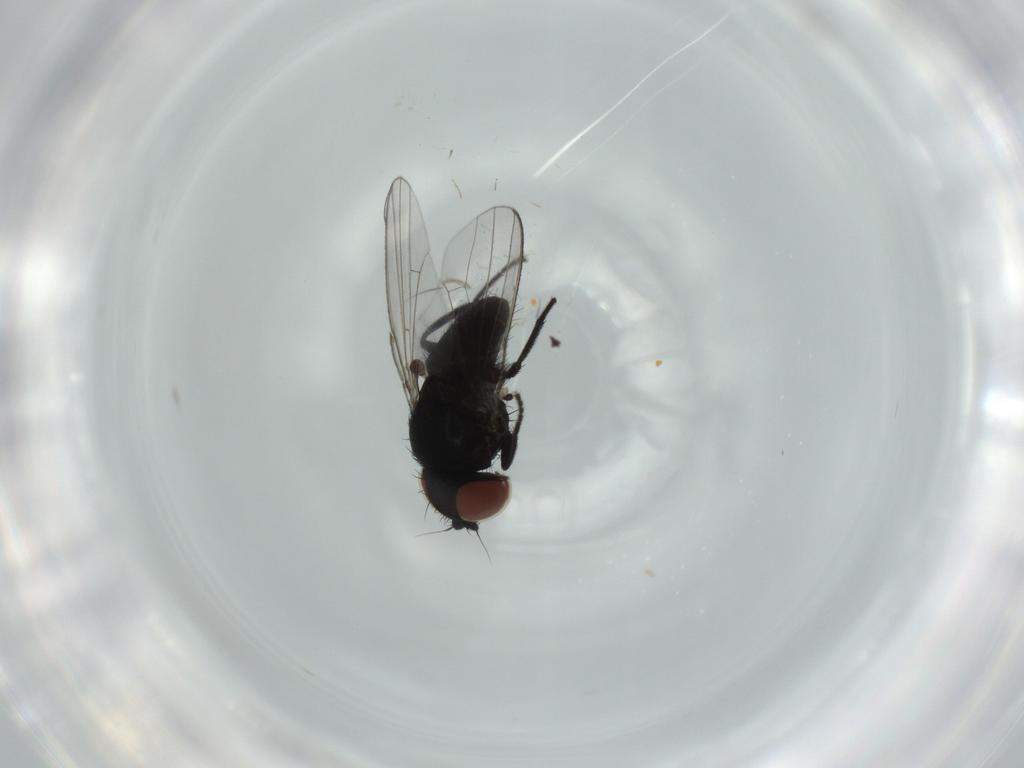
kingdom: Animalia
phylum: Arthropoda
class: Insecta
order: Diptera
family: Milichiidae
